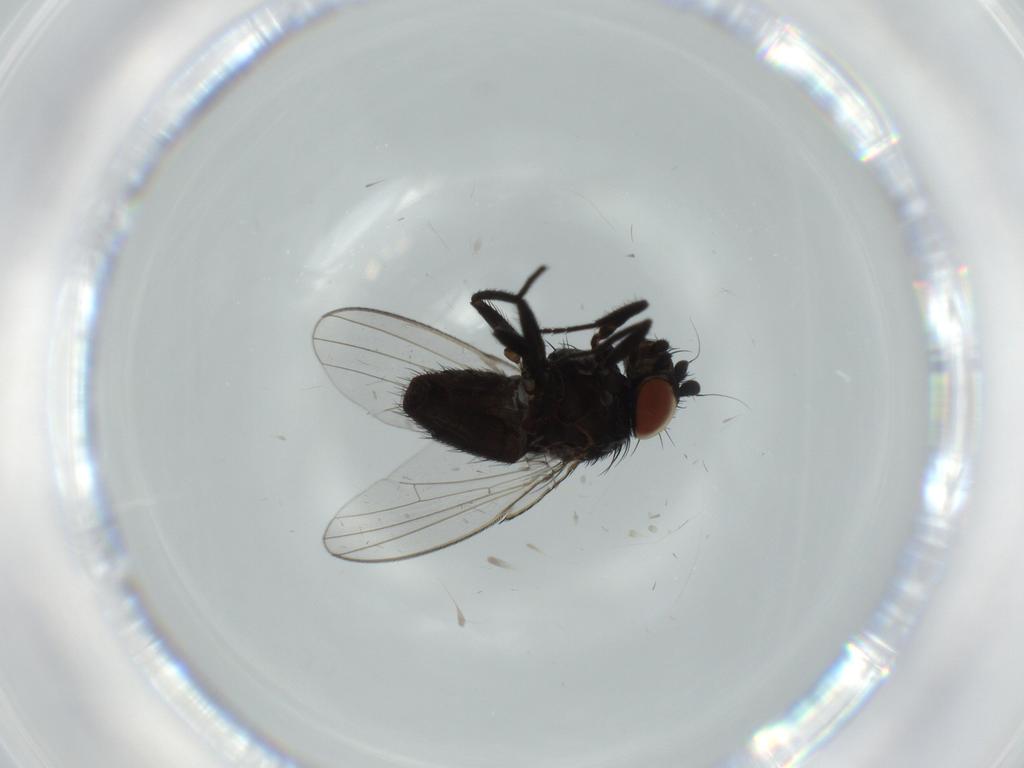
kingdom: Animalia
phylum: Arthropoda
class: Insecta
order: Diptera
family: Milichiidae
